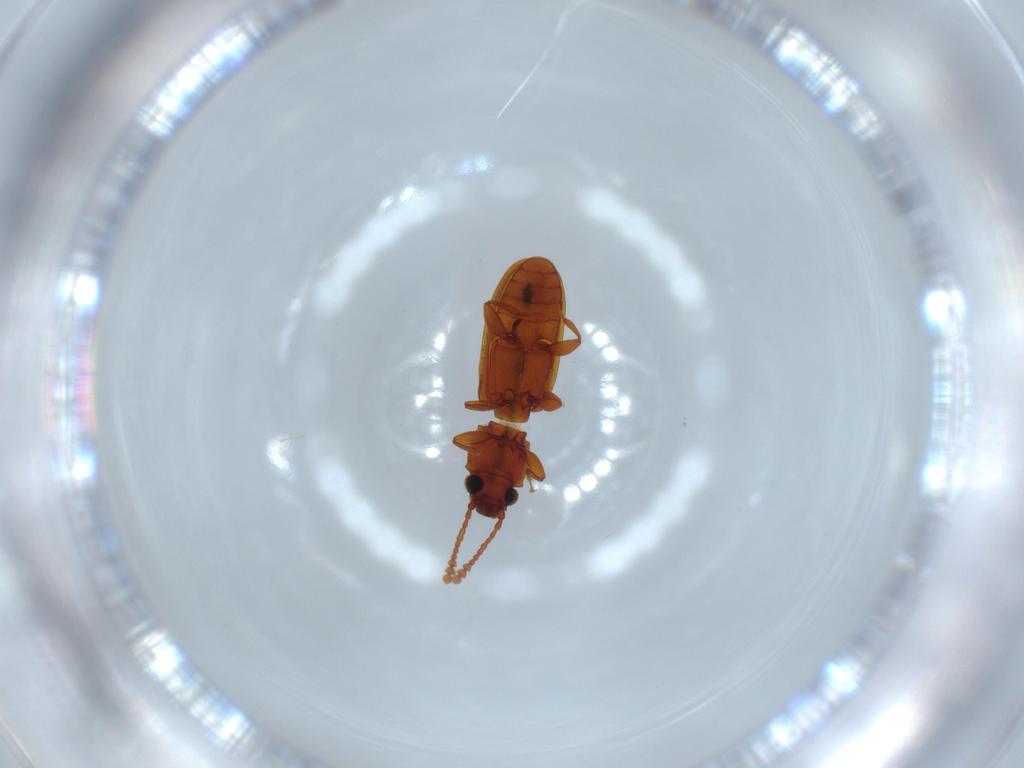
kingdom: Animalia
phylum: Arthropoda
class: Insecta
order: Coleoptera
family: Silvanidae
